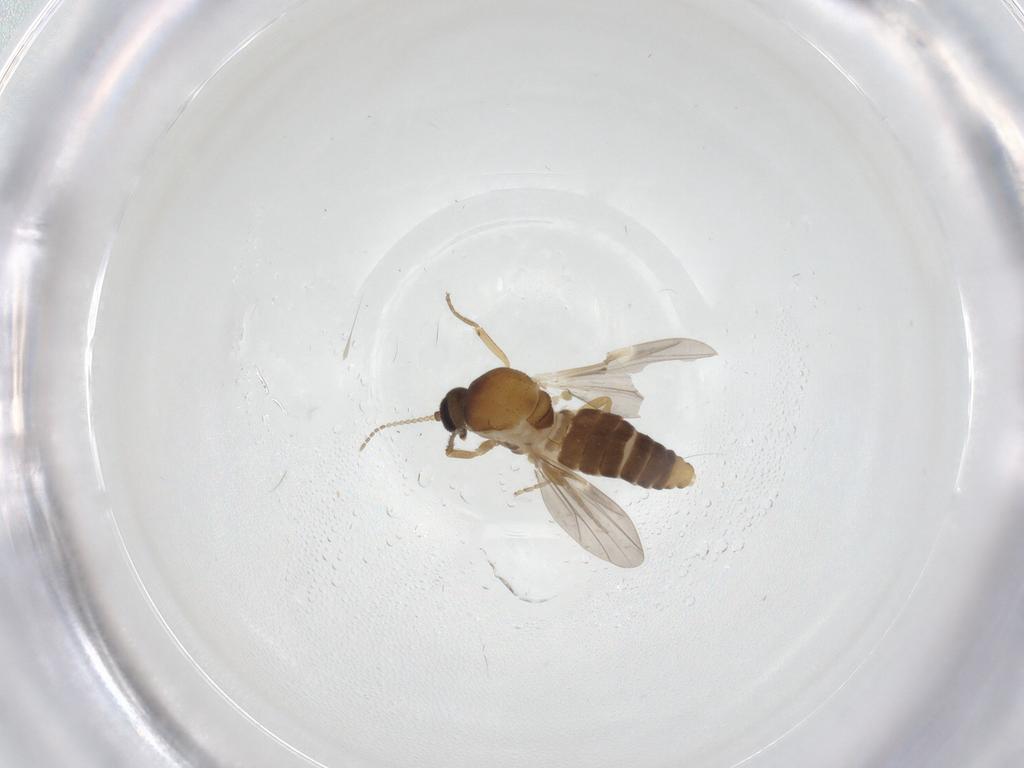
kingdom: Animalia
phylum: Arthropoda
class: Insecta
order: Diptera
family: Ceratopogonidae
